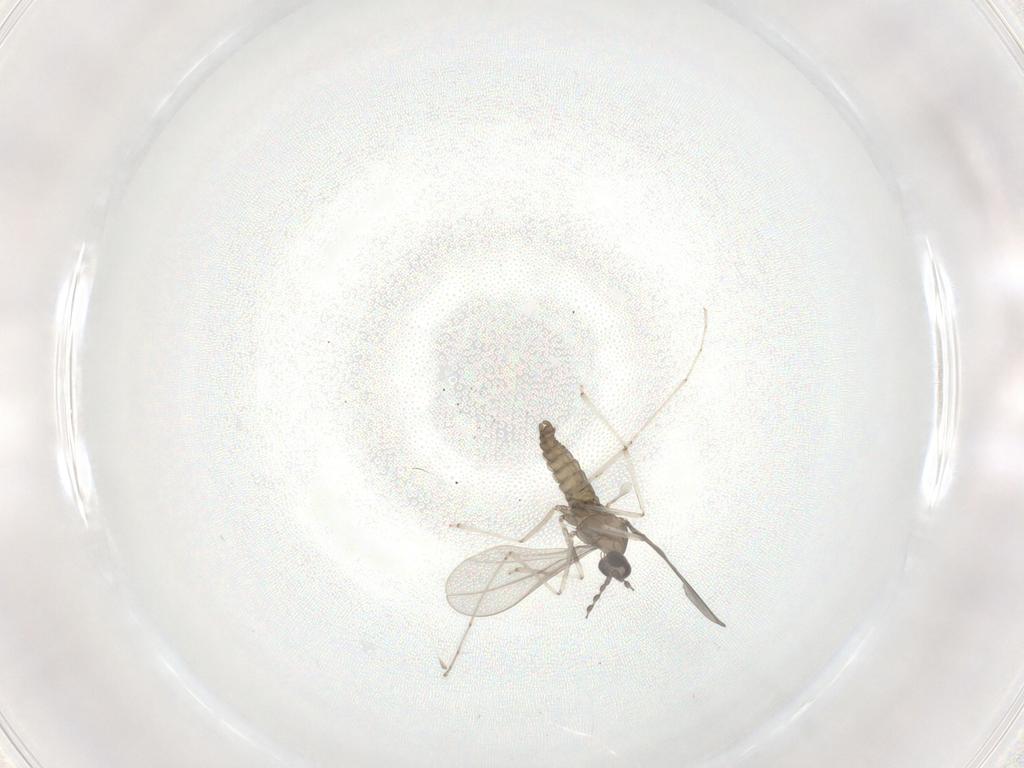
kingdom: Animalia
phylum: Arthropoda
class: Insecta
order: Diptera
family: Cecidomyiidae
